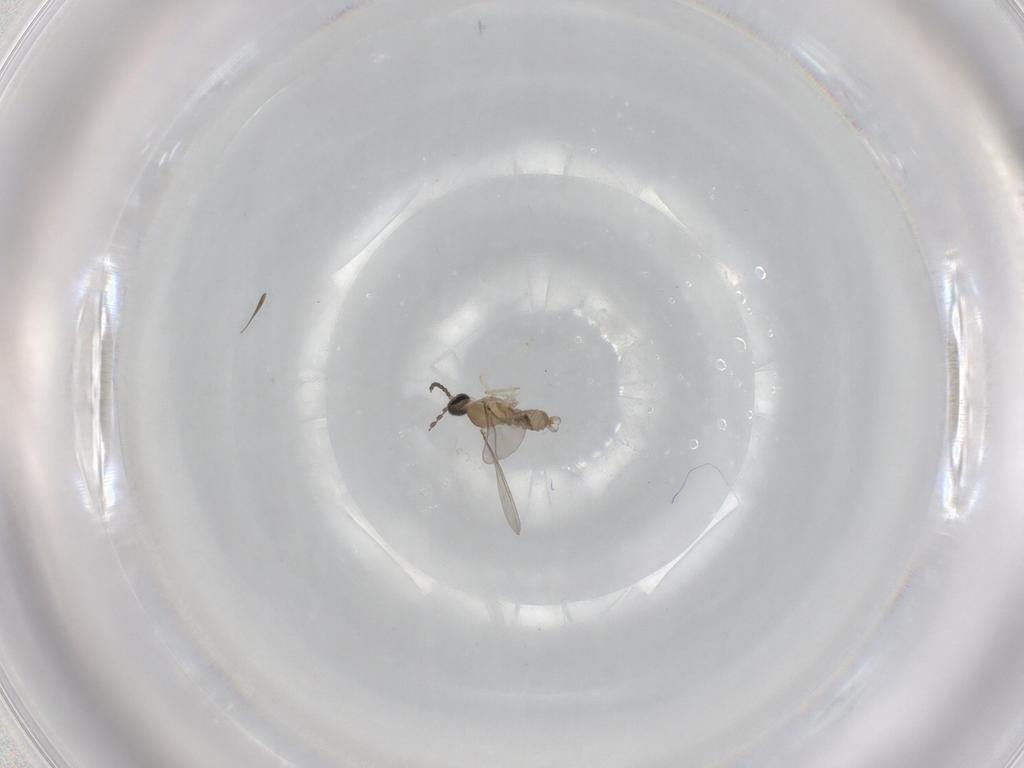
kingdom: Animalia
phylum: Arthropoda
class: Insecta
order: Diptera
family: Cecidomyiidae
